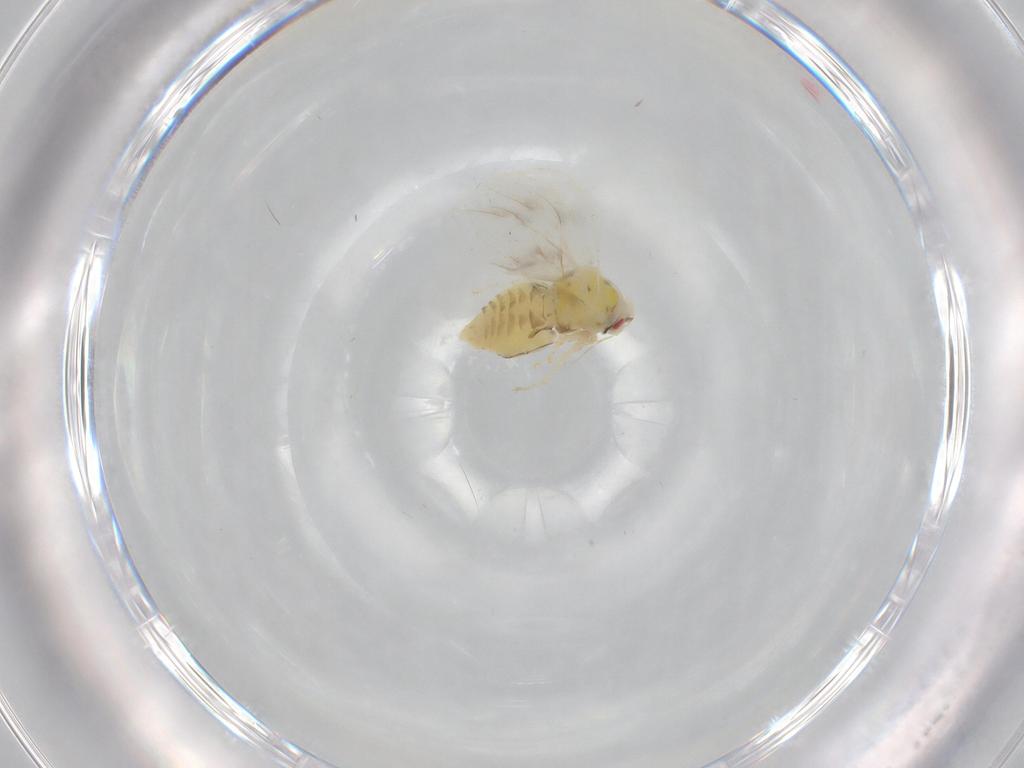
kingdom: Animalia
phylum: Arthropoda
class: Insecta
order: Hemiptera
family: Aleyrodidae
